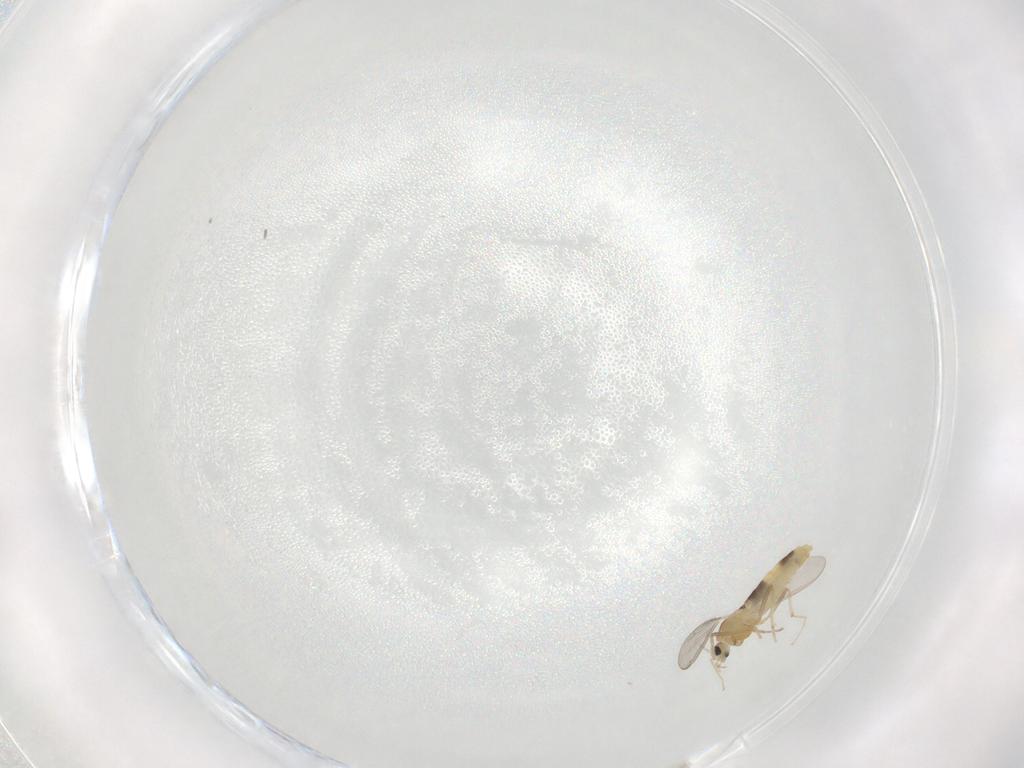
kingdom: Animalia
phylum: Arthropoda
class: Insecta
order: Diptera
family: Chironomidae
